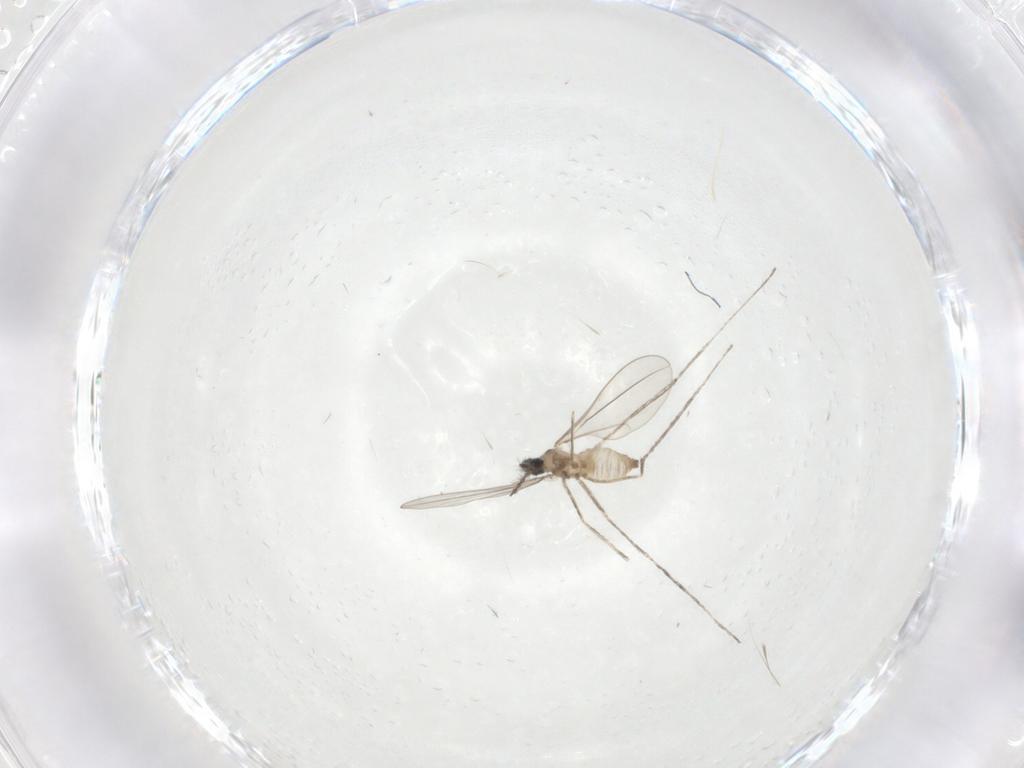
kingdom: Animalia
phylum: Arthropoda
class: Insecta
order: Diptera
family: Cecidomyiidae
